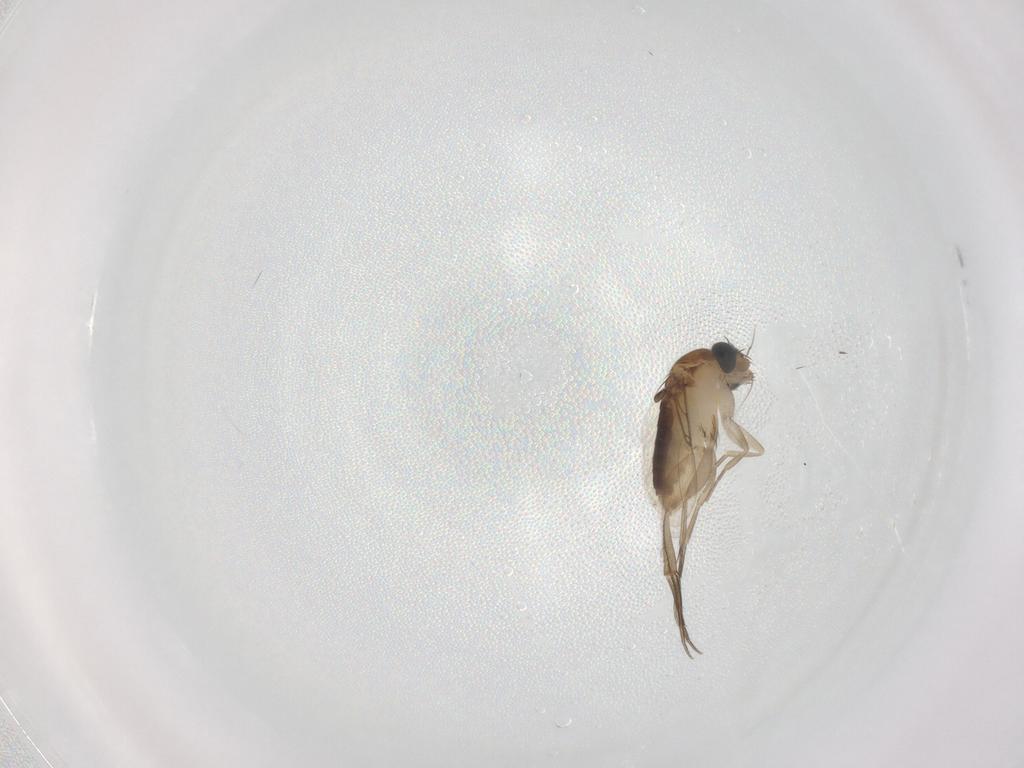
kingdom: Animalia
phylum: Arthropoda
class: Insecta
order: Diptera
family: Phoridae
